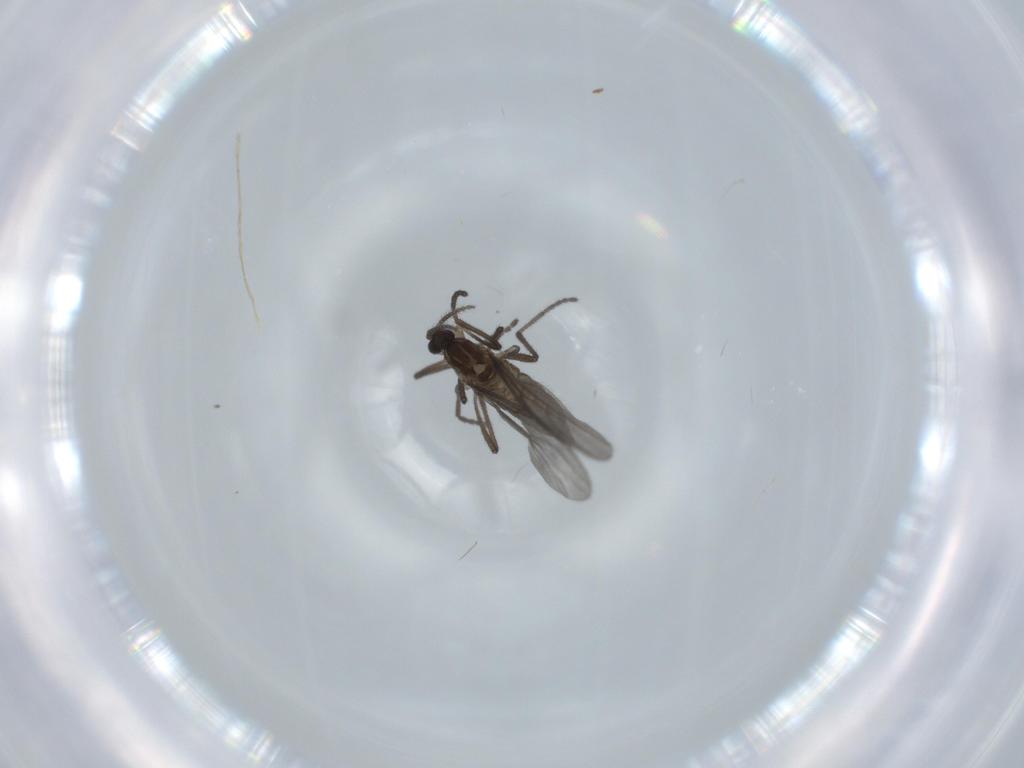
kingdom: Animalia
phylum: Arthropoda
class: Insecta
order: Diptera
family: Cecidomyiidae
